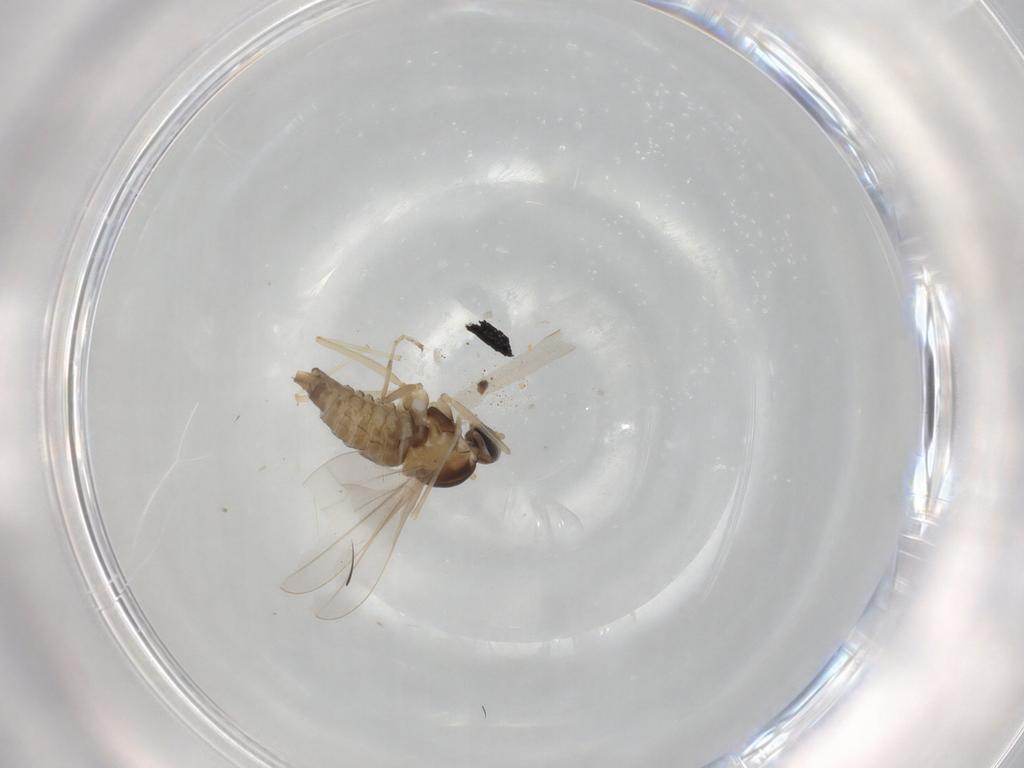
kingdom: Animalia
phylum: Arthropoda
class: Insecta
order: Diptera
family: Cecidomyiidae
